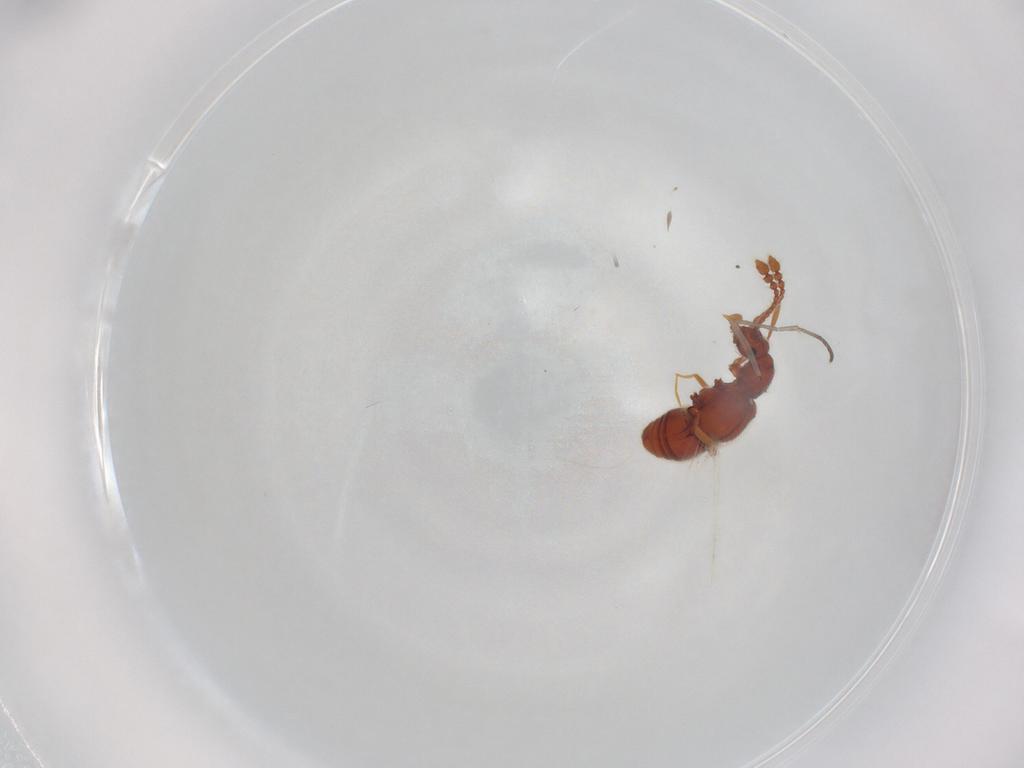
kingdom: Animalia
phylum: Arthropoda
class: Insecta
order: Coleoptera
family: Staphylinidae
